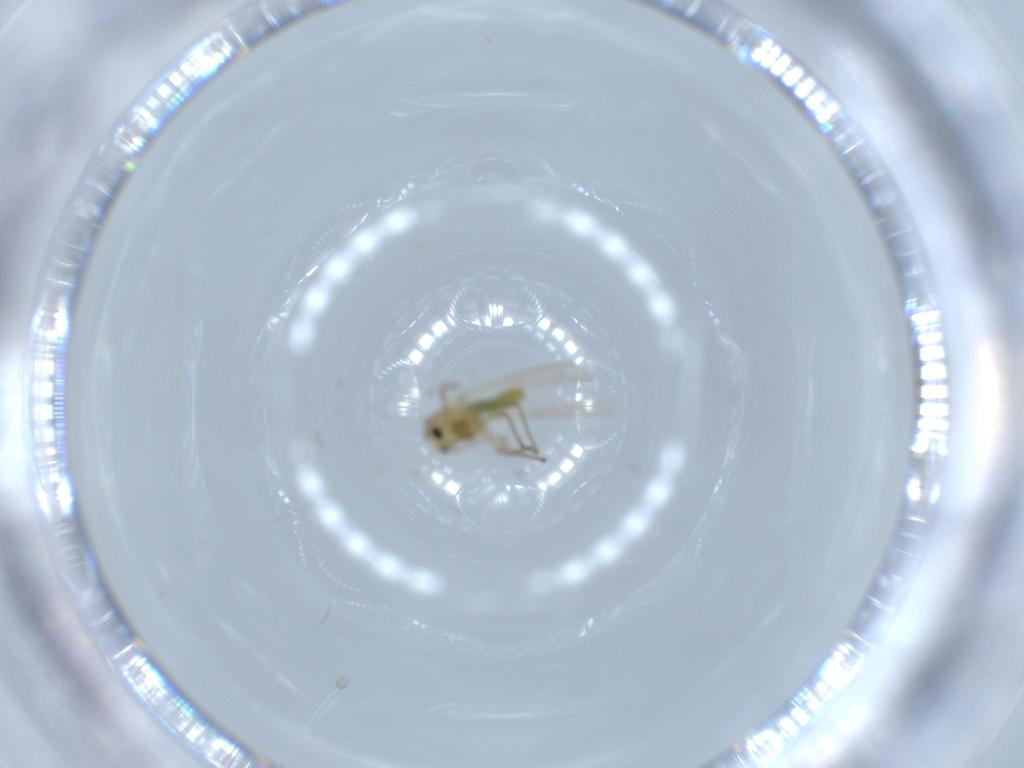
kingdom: Animalia
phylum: Arthropoda
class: Insecta
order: Diptera
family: Chironomidae
